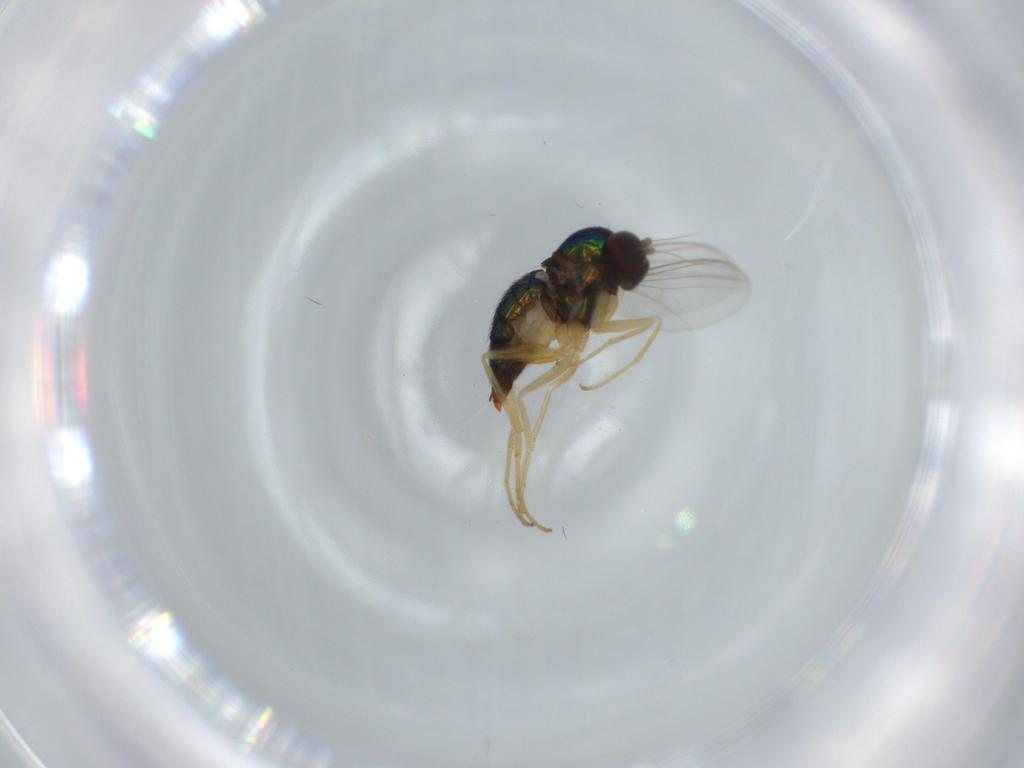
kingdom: Animalia
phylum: Arthropoda
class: Insecta
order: Diptera
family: Dolichopodidae
